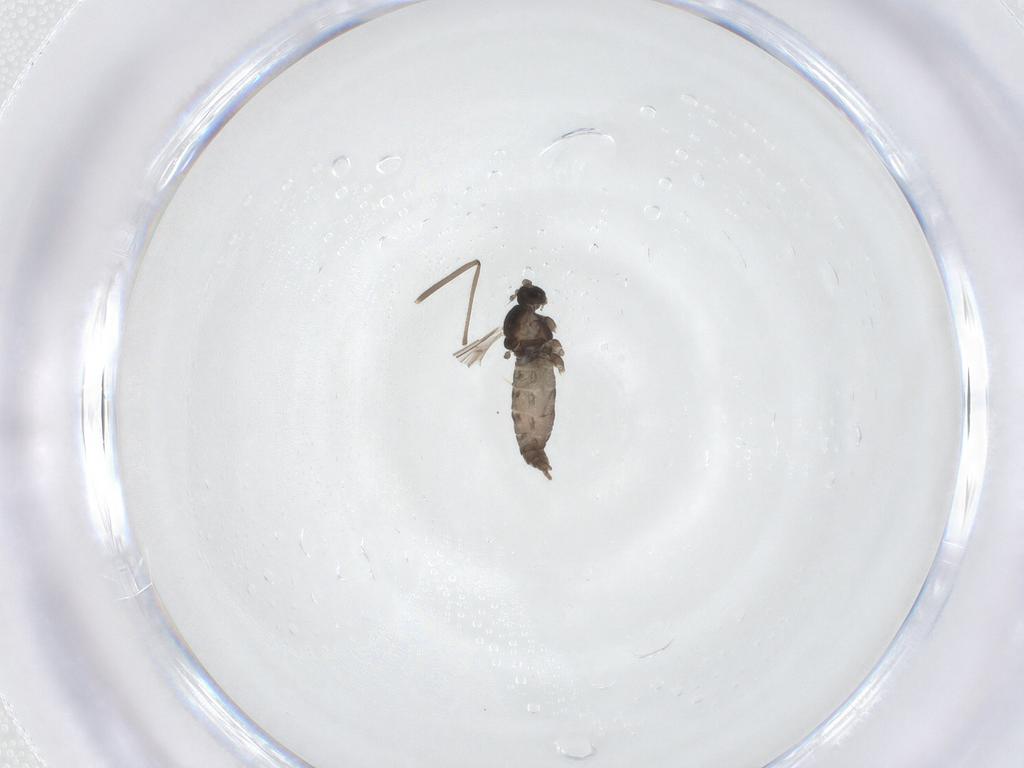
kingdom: Animalia
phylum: Arthropoda
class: Insecta
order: Diptera
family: Cecidomyiidae
